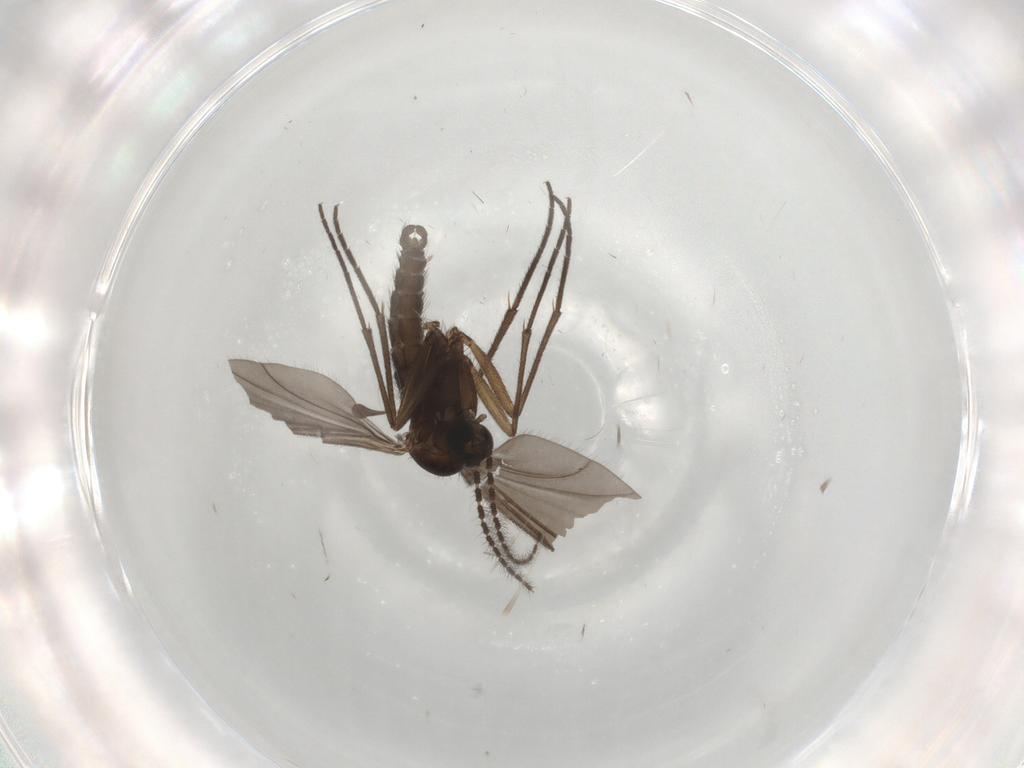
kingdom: Animalia
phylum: Arthropoda
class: Insecta
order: Diptera
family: Sciaridae
